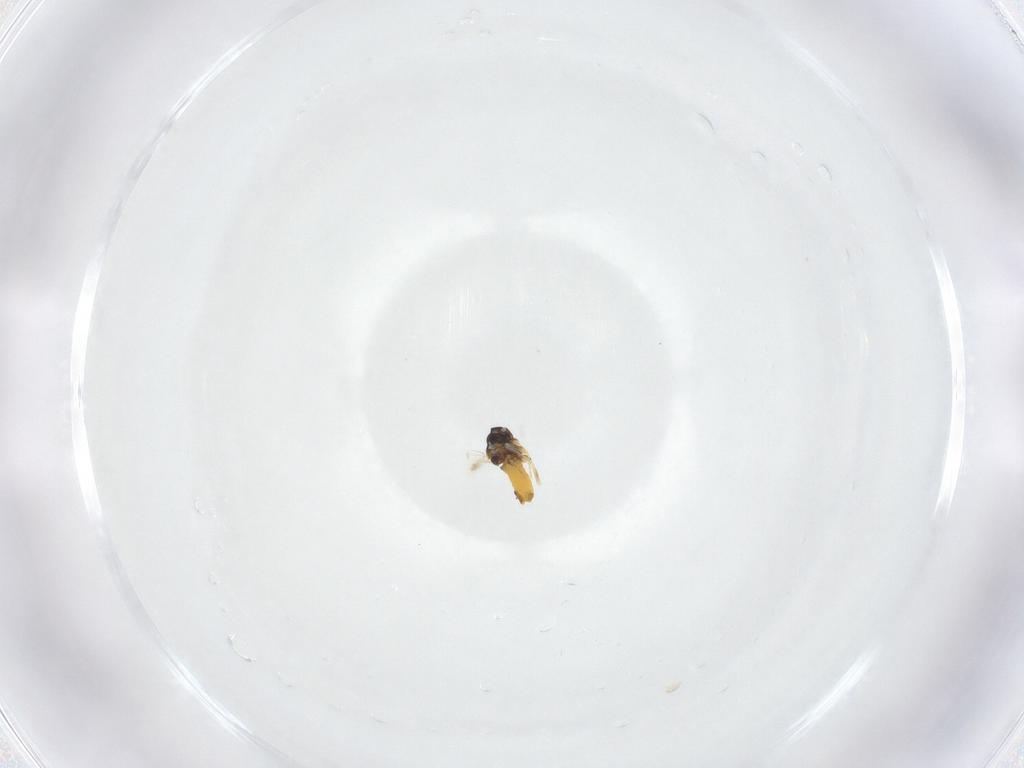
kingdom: Animalia
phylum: Arthropoda
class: Insecta
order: Hemiptera
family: Aleyrodidae
